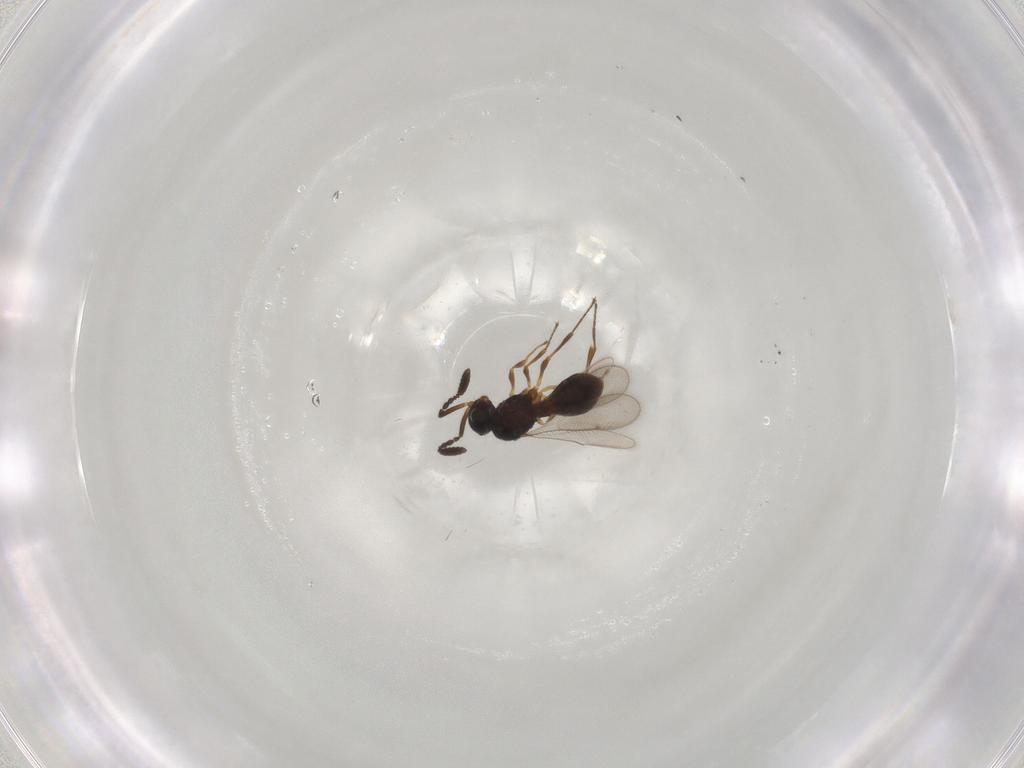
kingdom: Animalia
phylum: Arthropoda
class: Insecta
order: Hymenoptera
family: Scelionidae
